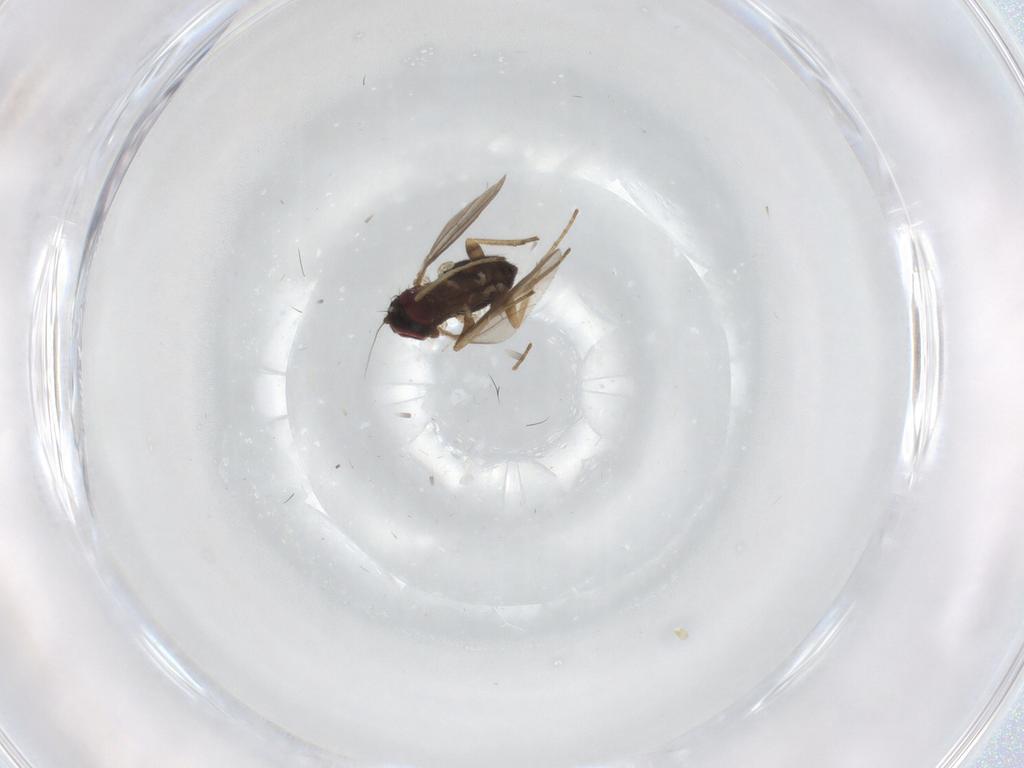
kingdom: Animalia
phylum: Arthropoda
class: Insecta
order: Diptera
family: Dolichopodidae
